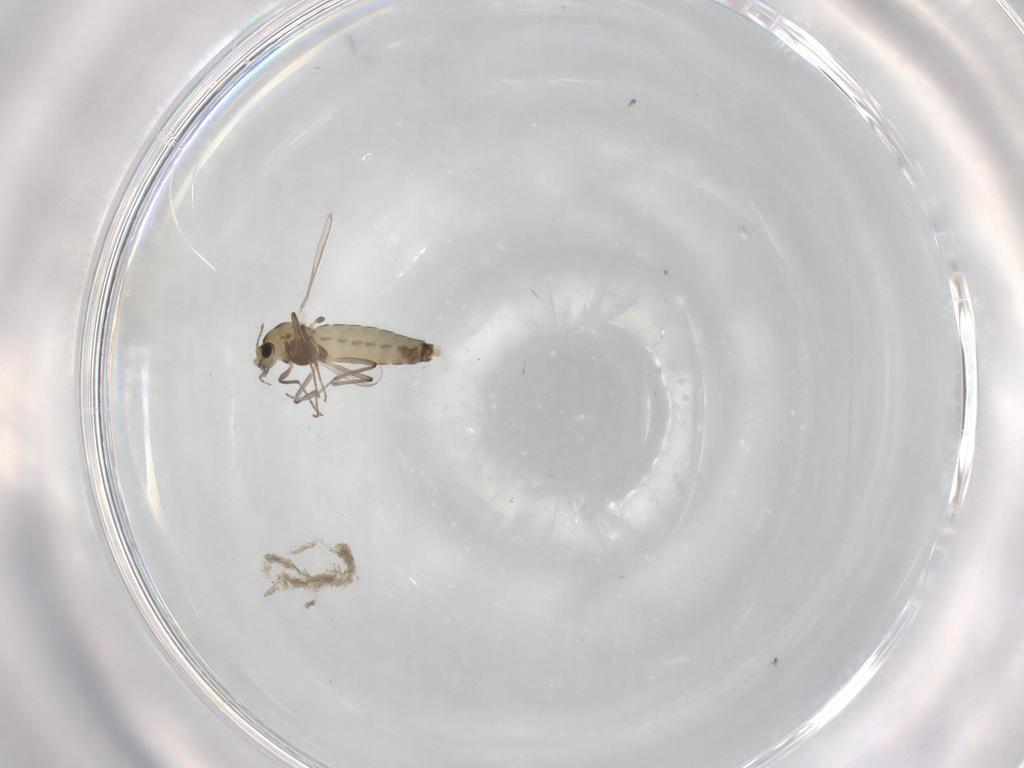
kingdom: Animalia
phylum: Arthropoda
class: Insecta
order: Diptera
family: Chironomidae
